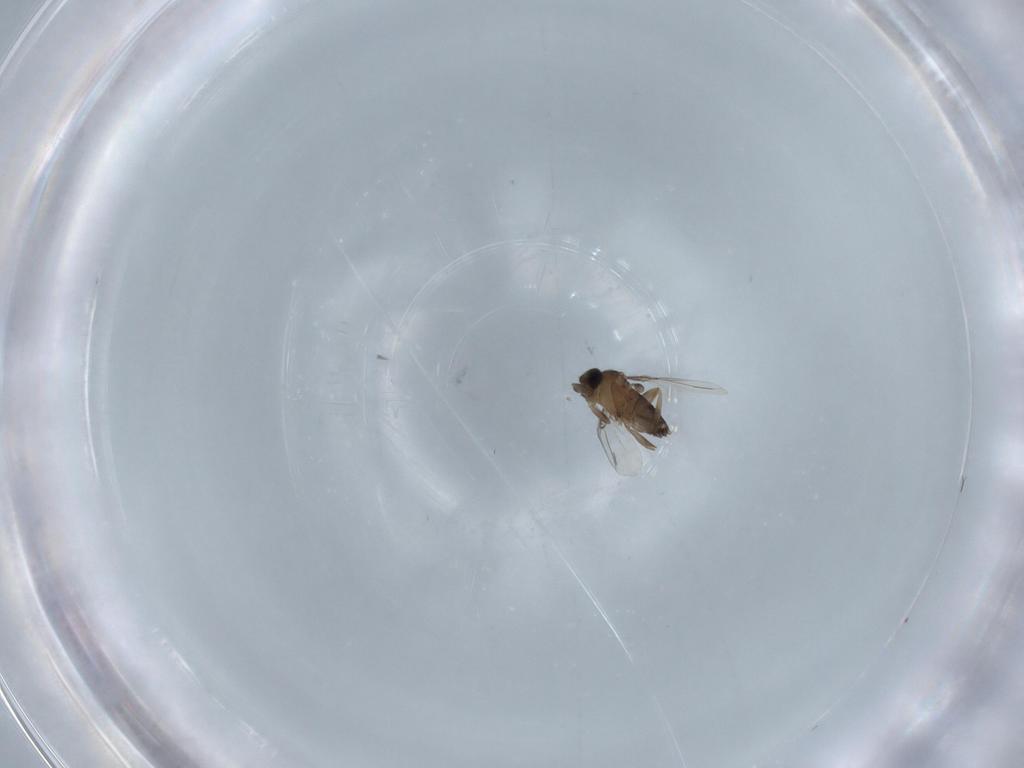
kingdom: Animalia
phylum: Arthropoda
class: Insecta
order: Diptera
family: Phoridae
